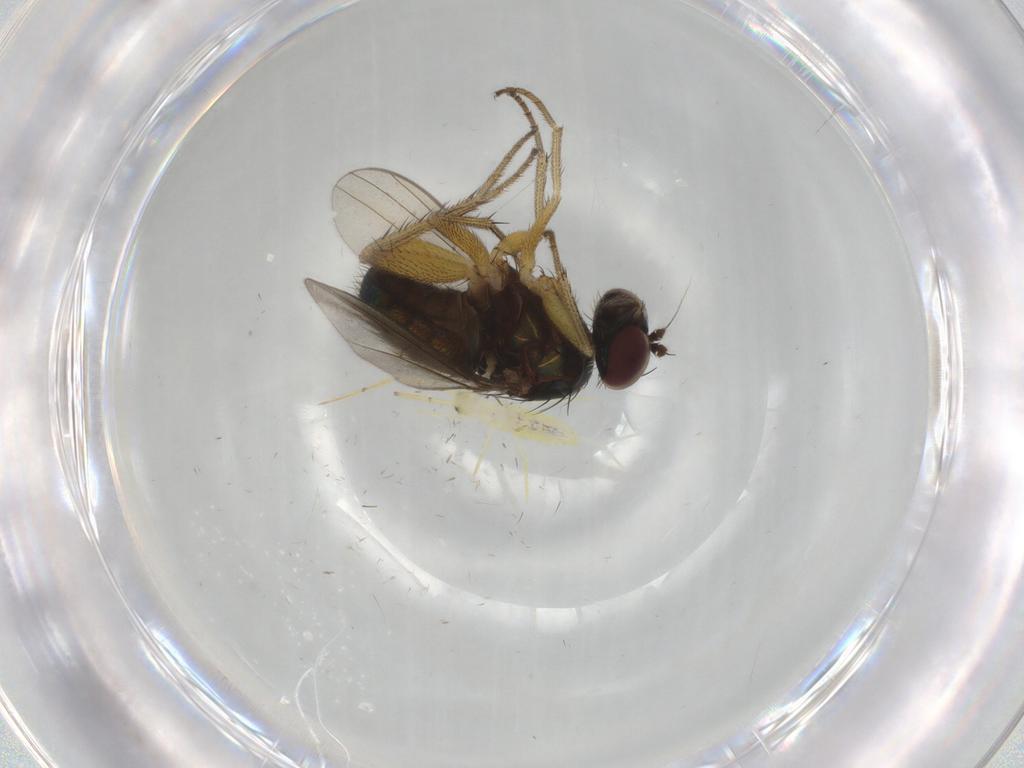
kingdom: Animalia
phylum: Arthropoda
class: Insecta
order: Diptera
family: Dolichopodidae
